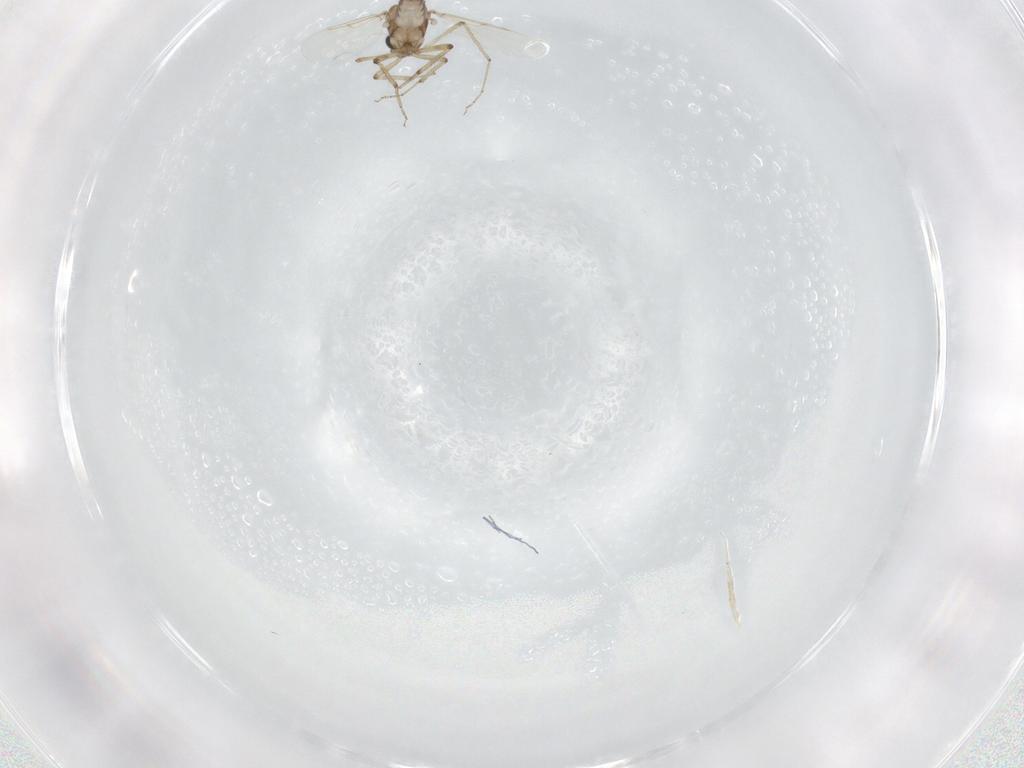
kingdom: Animalia
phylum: Arthropoda
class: Insecta
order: Diptera
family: Ceratopogonidae
